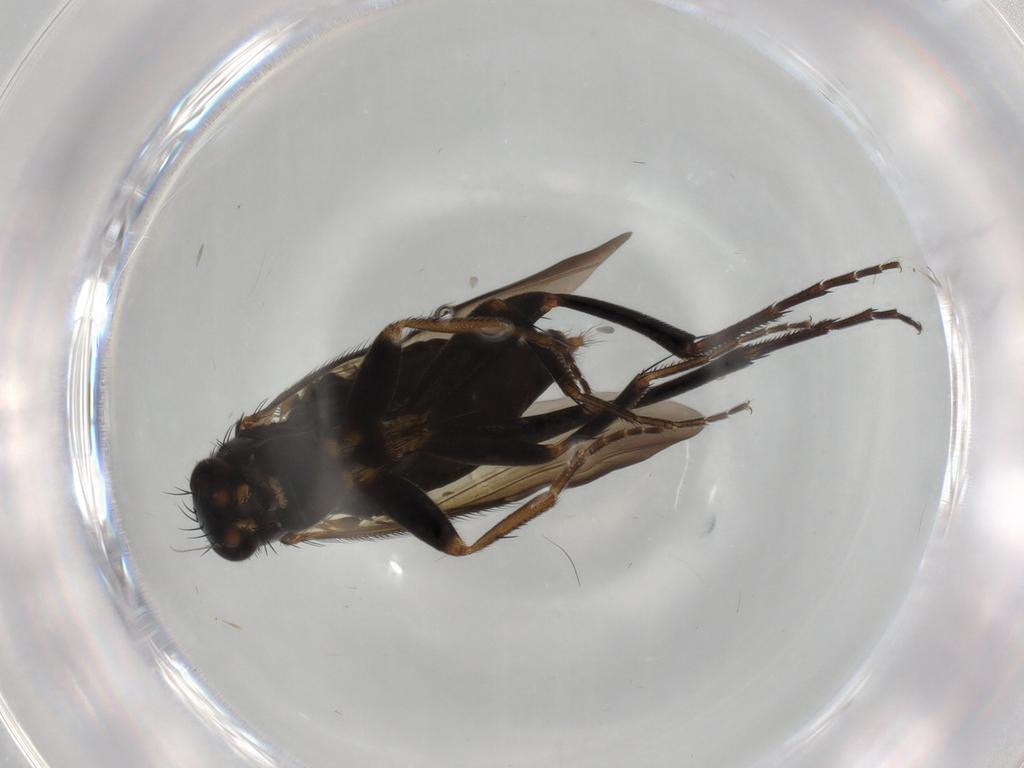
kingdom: Animalia
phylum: Arthropoda
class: Insecta
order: Diptera
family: Phoridae
